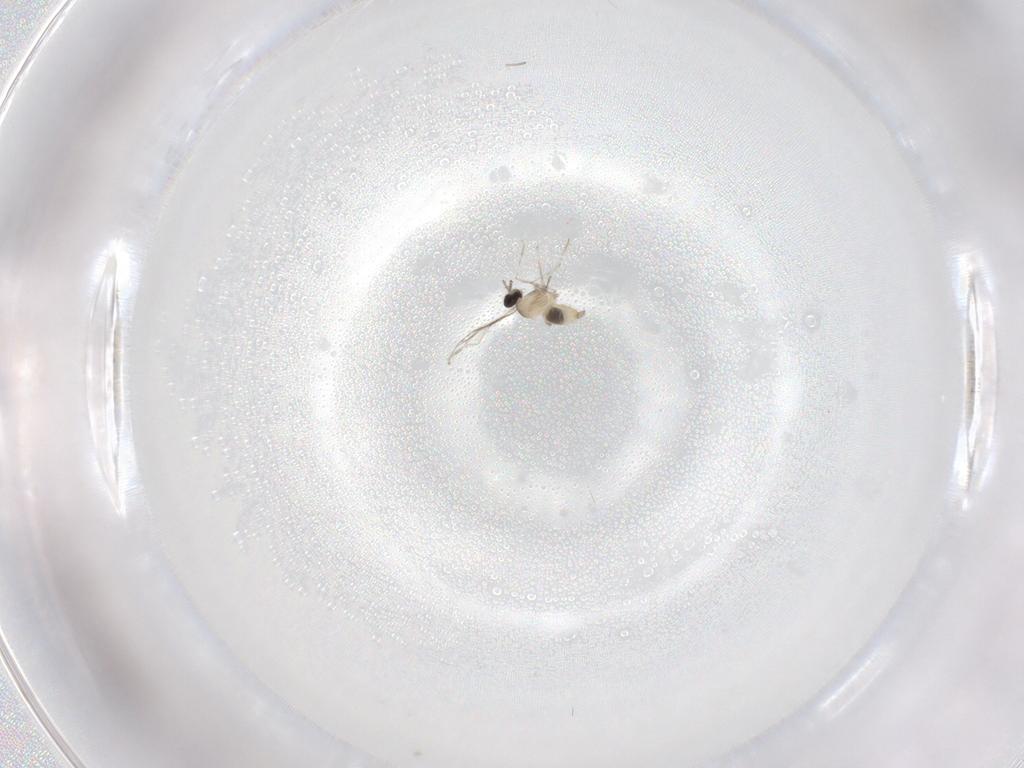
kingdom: Animalia
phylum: Arthropoda
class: Insecta
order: Diptera
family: Cecidomyiidae
